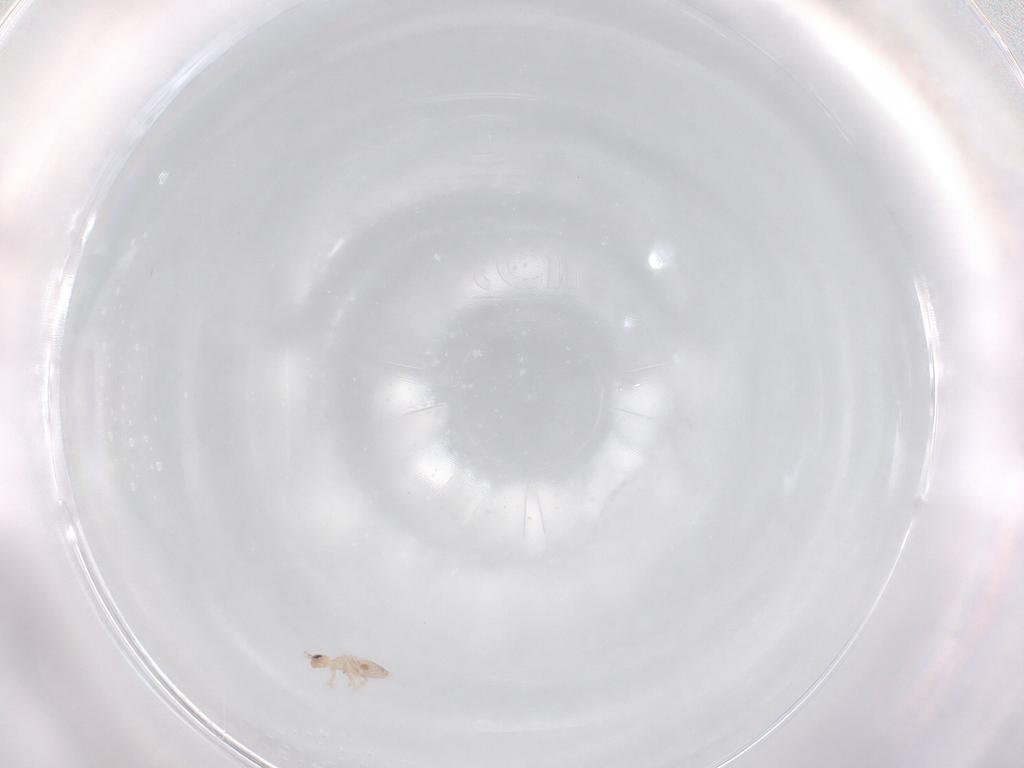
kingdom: Animalia
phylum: Arthropoda
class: Collembola
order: Entomobryomorpha
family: Entomobryidae
